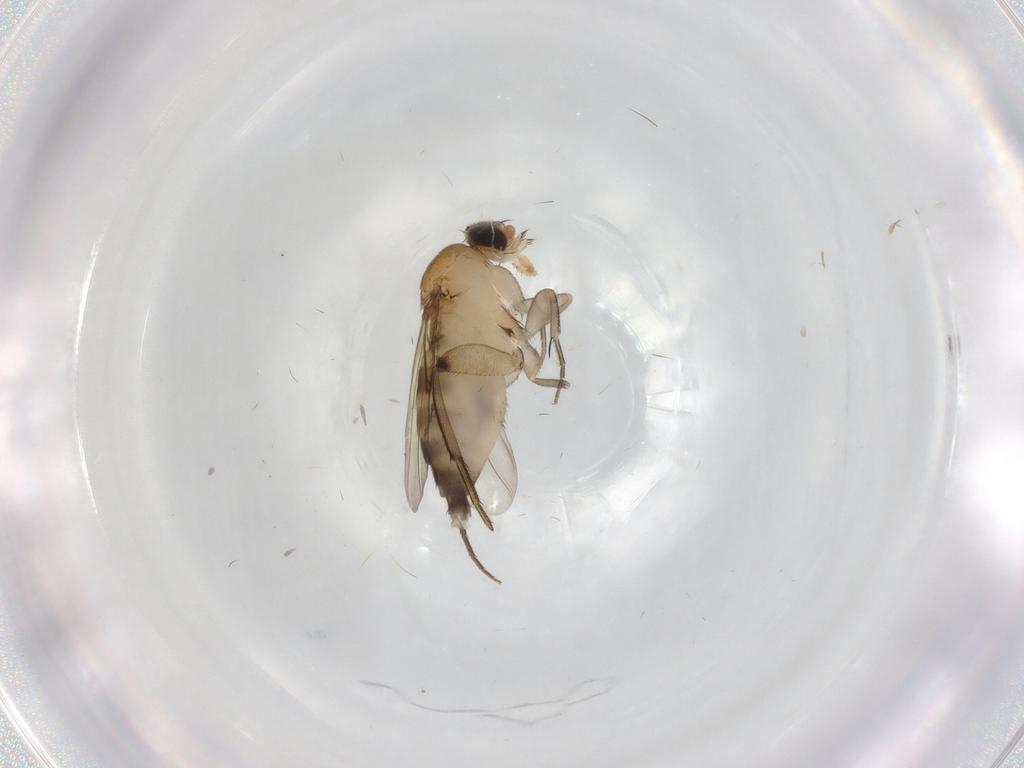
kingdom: Animalia
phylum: Arthropoda
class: Insecta
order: Diptera
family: Phoridae
